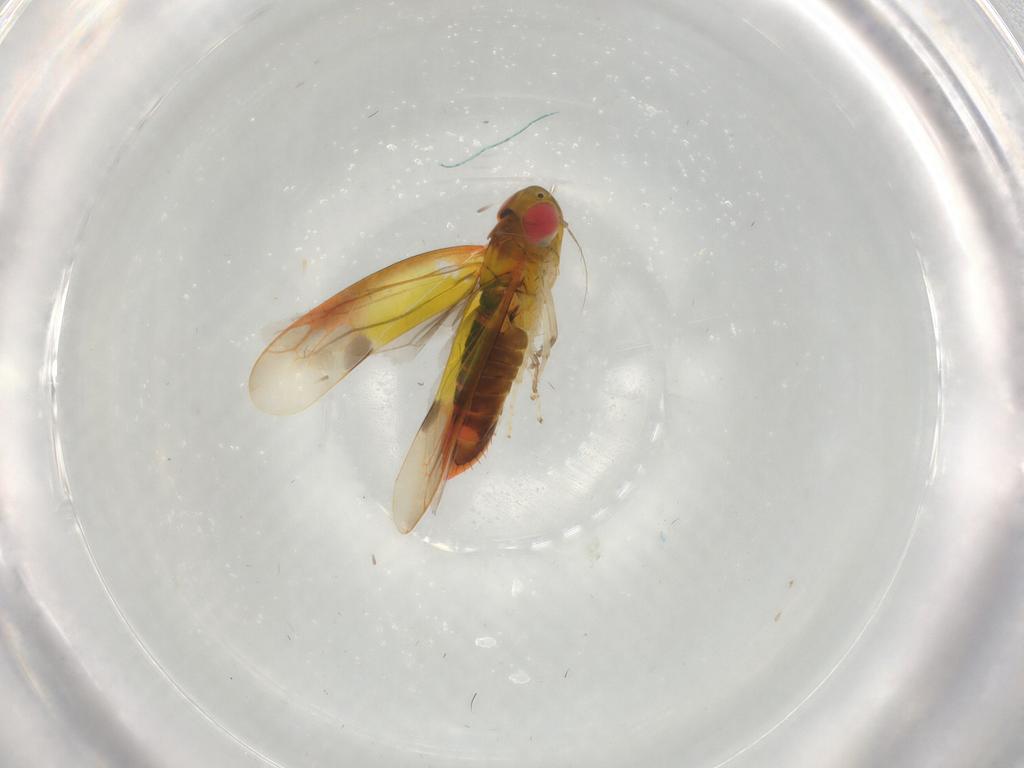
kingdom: Animalia
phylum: Arthropoda
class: Insecta
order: Hemiptera
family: Cicadellidae
